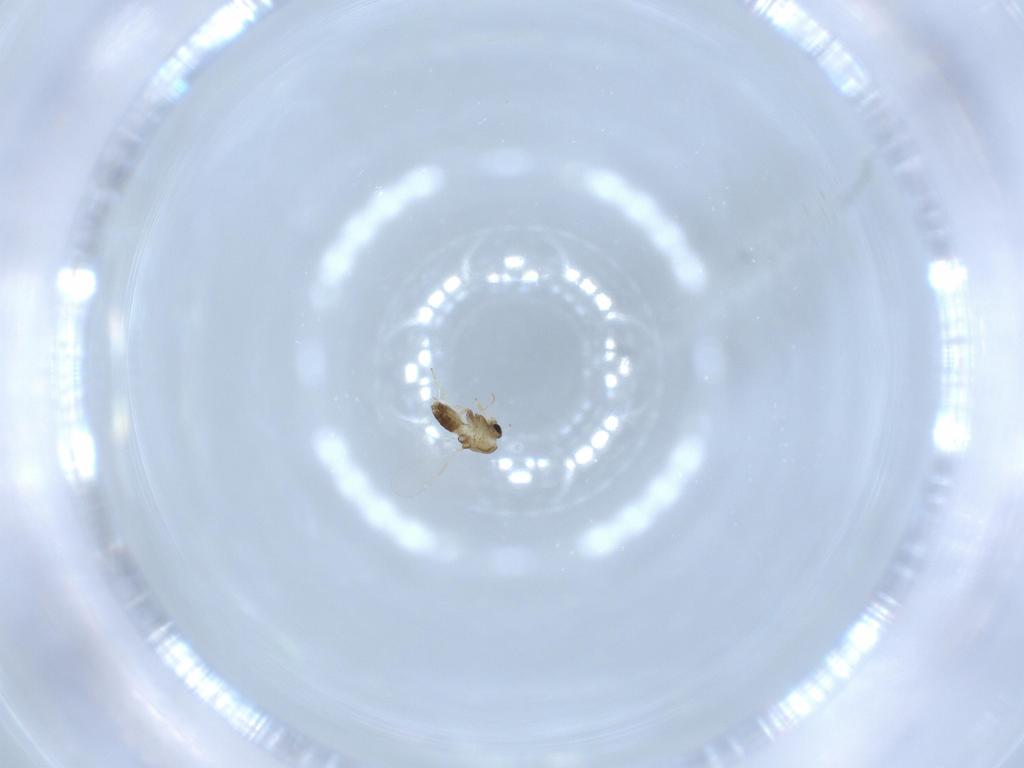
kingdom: Animalia
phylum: Arthropoda
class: Insecta
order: Diptera
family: Chironomidae
